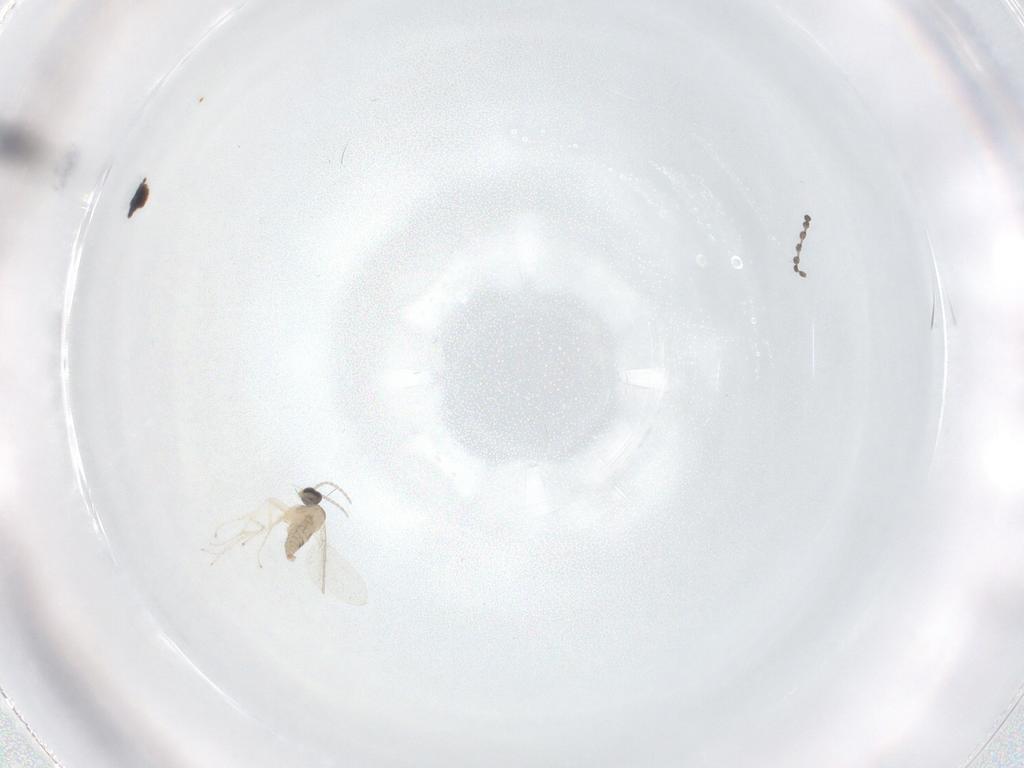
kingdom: Animalia
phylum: Arthropoda
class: Insecta
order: Diptera
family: Cecidomyiidae
